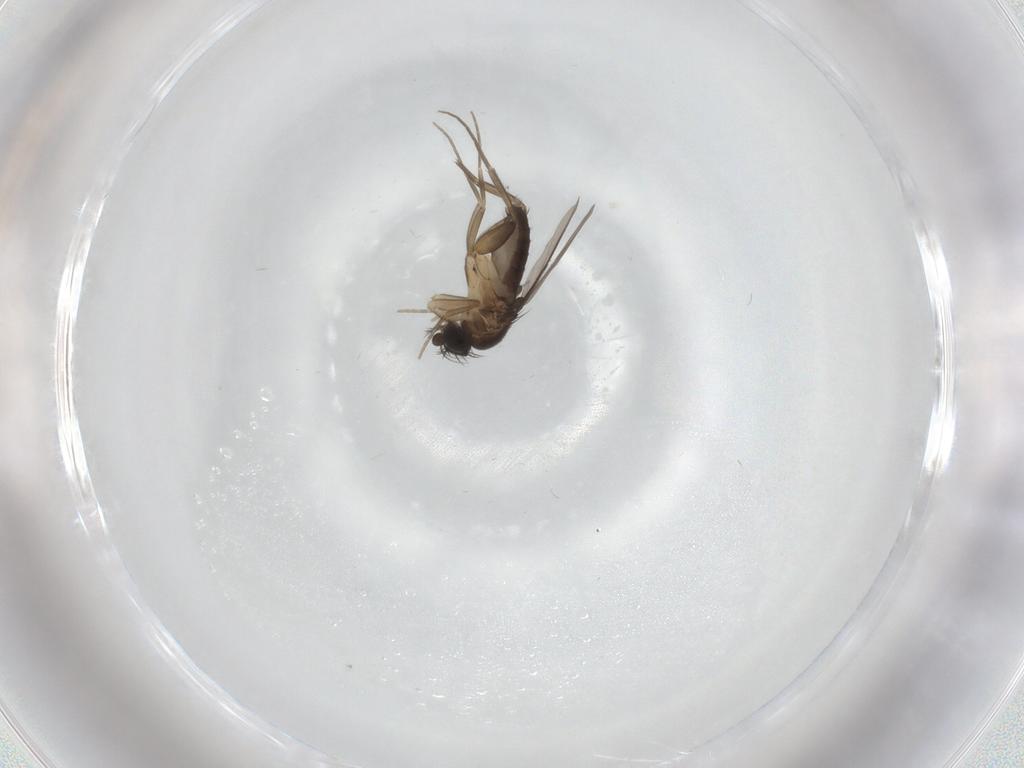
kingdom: Animalia
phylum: Arthropoda
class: Insecta
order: Diptera
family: Phoridae
